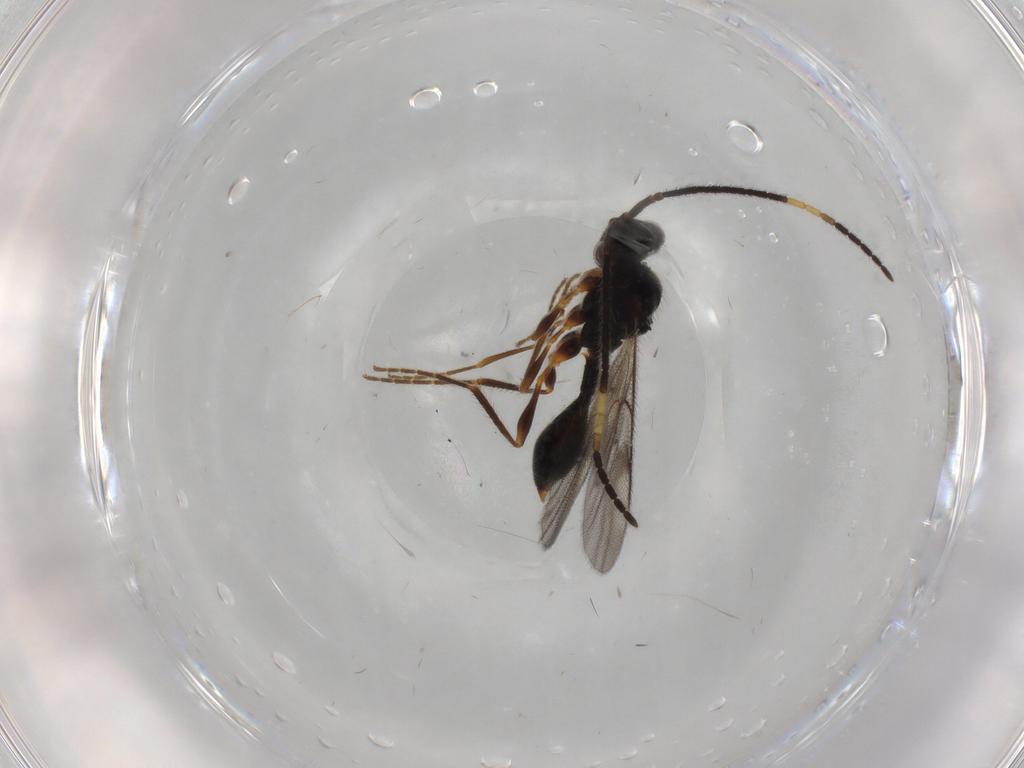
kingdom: Animalia
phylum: Arthropoda
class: Insecta
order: Hymenoptera
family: Diapriidae
